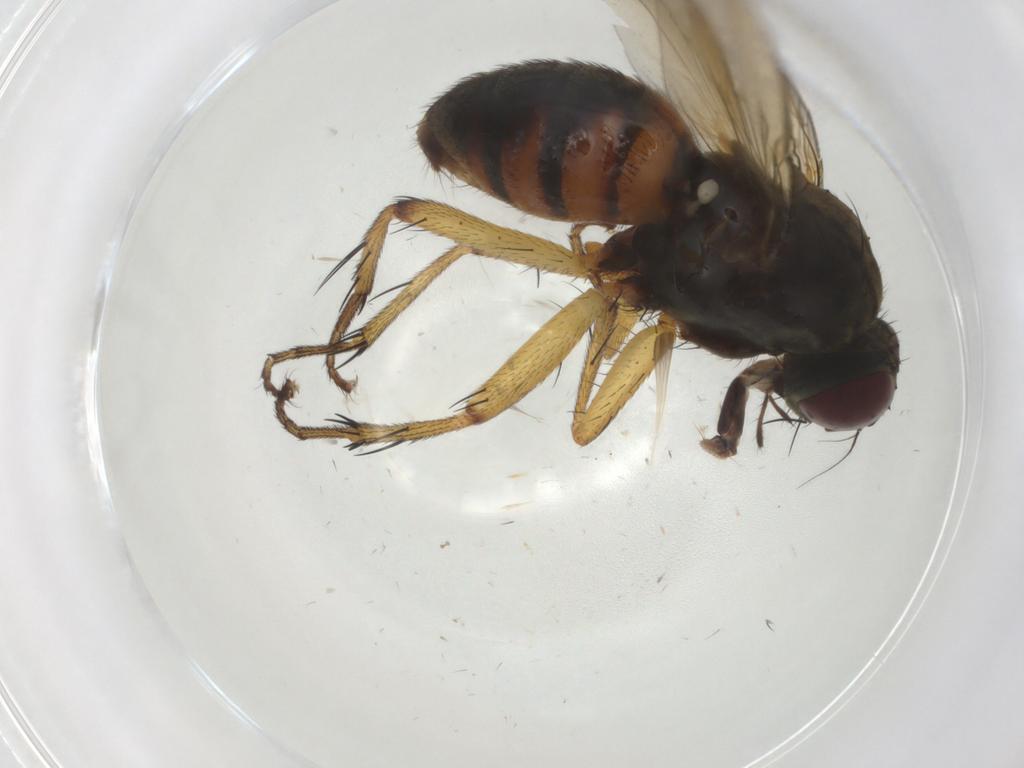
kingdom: Animalia
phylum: Arthropoda
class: Insecta
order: Diptera
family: Muscidae
